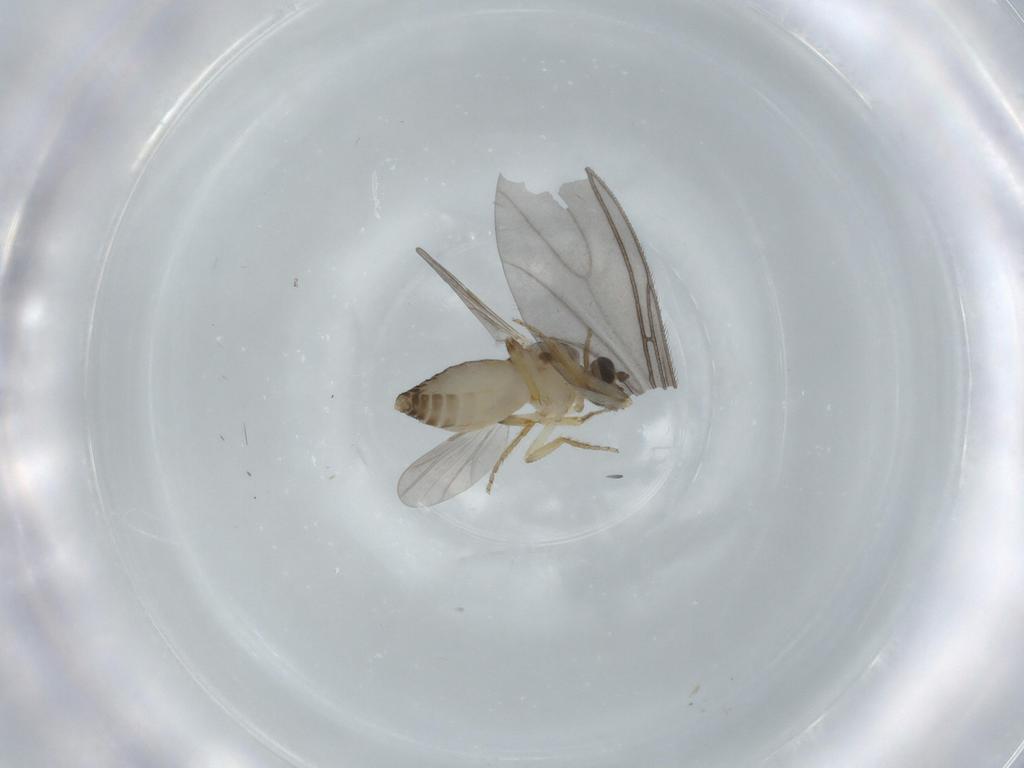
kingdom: Animalia
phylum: Arthropoda
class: Insecta
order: Diptera
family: Ceratopogonidae
